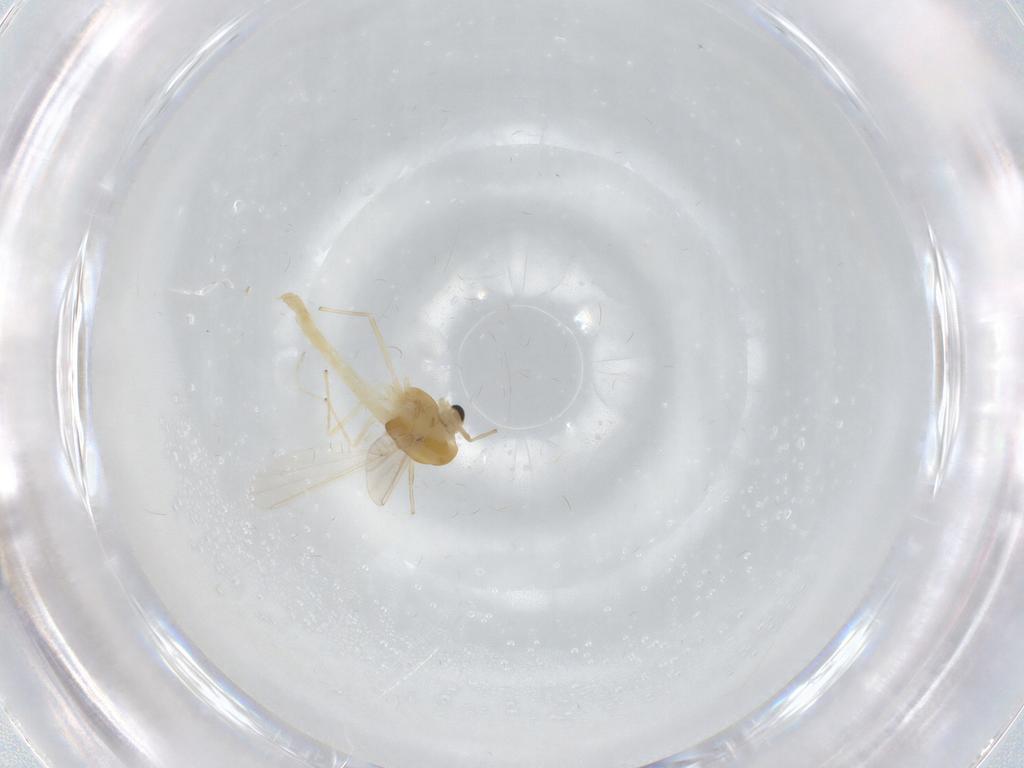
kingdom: Animalia
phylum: Arthropoda
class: Insecta
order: Diptera
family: Chironomidae
